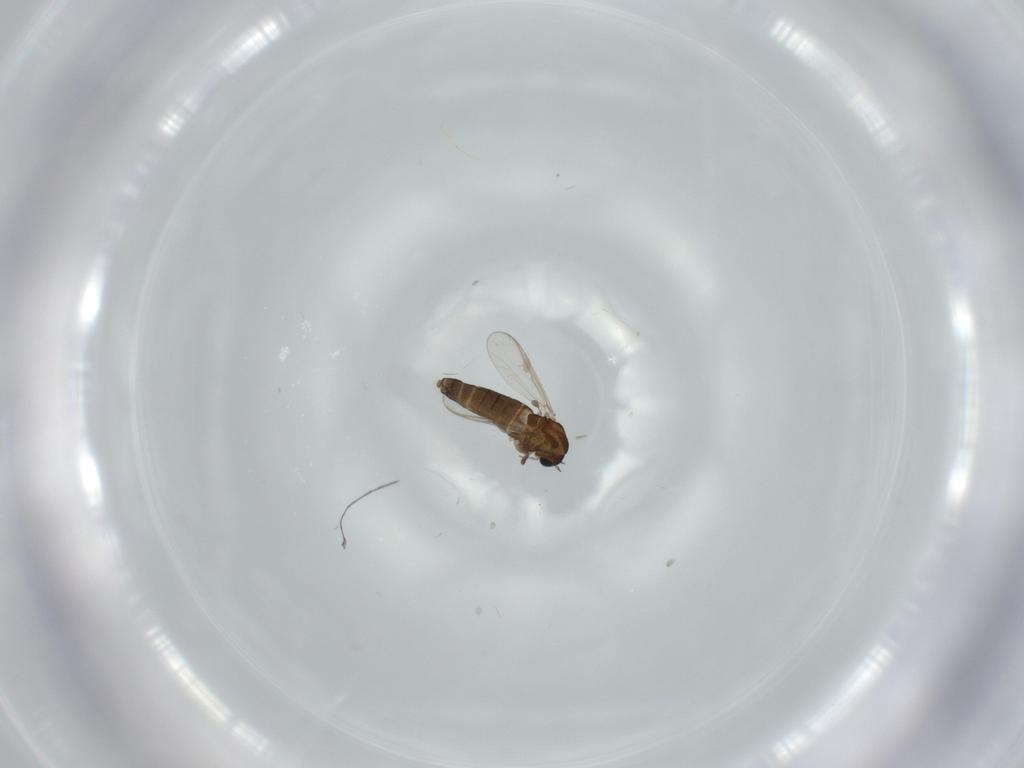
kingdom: Animalia
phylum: Arthropoda
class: Insecta
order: Diptera
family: Chironomidae
